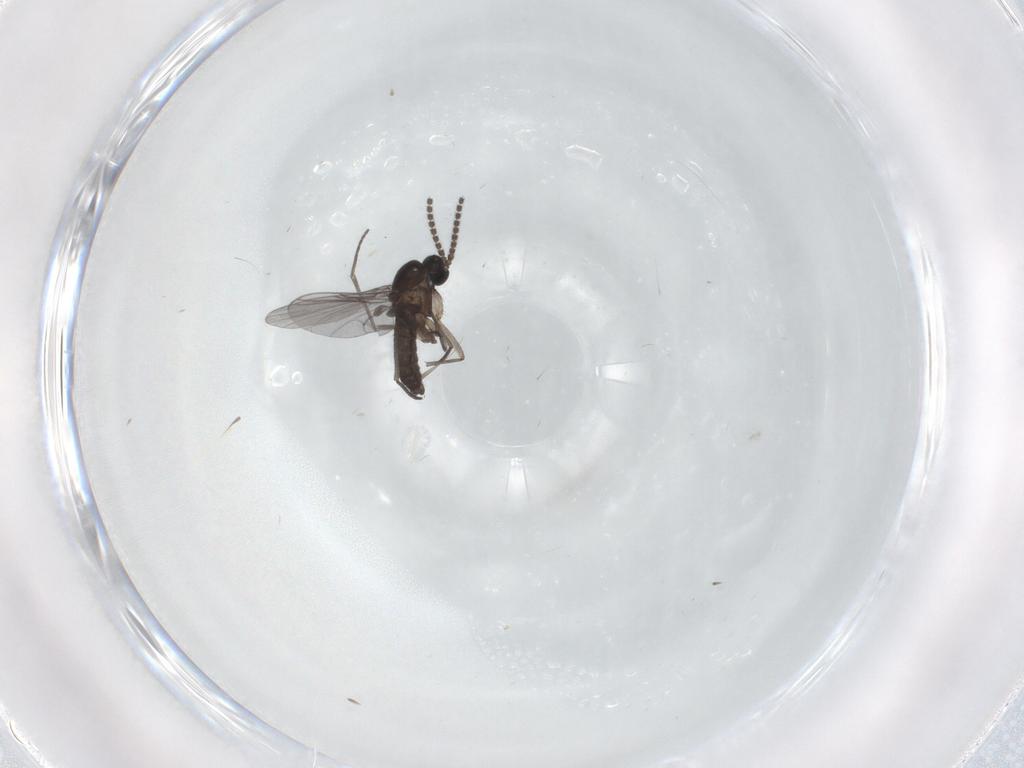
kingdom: Animalia
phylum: Arthropoda
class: Insecta
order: Diptera
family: Sciaridae
